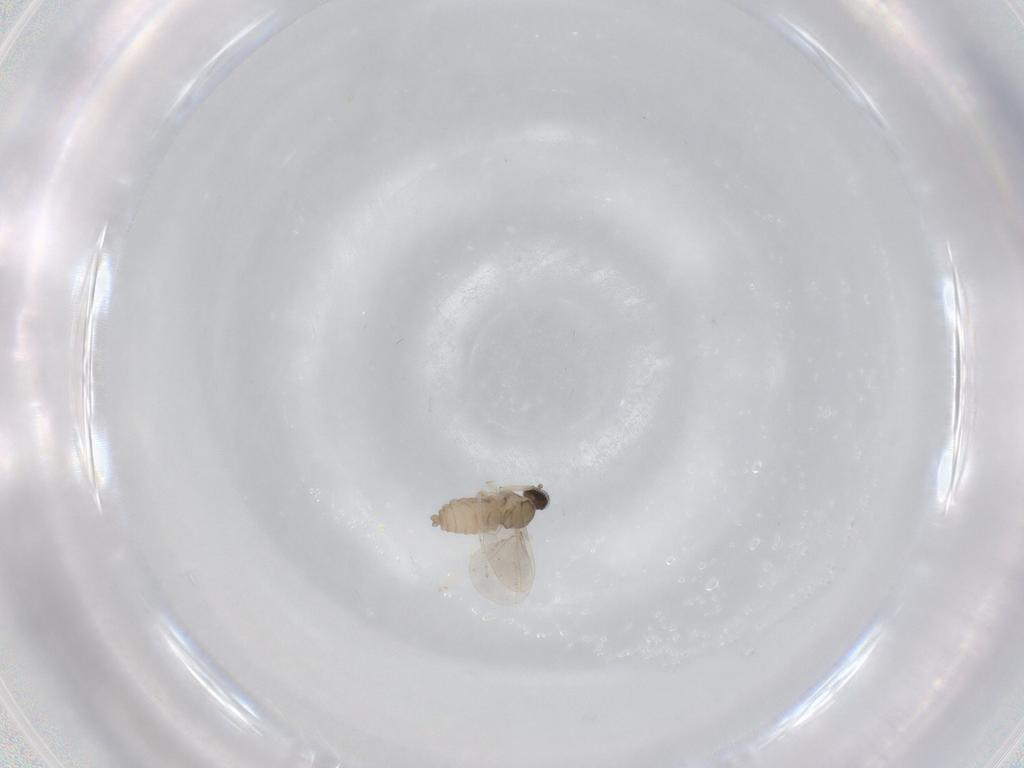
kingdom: Animalia
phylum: Arthropoda
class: Insecta
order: Diptera
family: Cecidomyiidae
